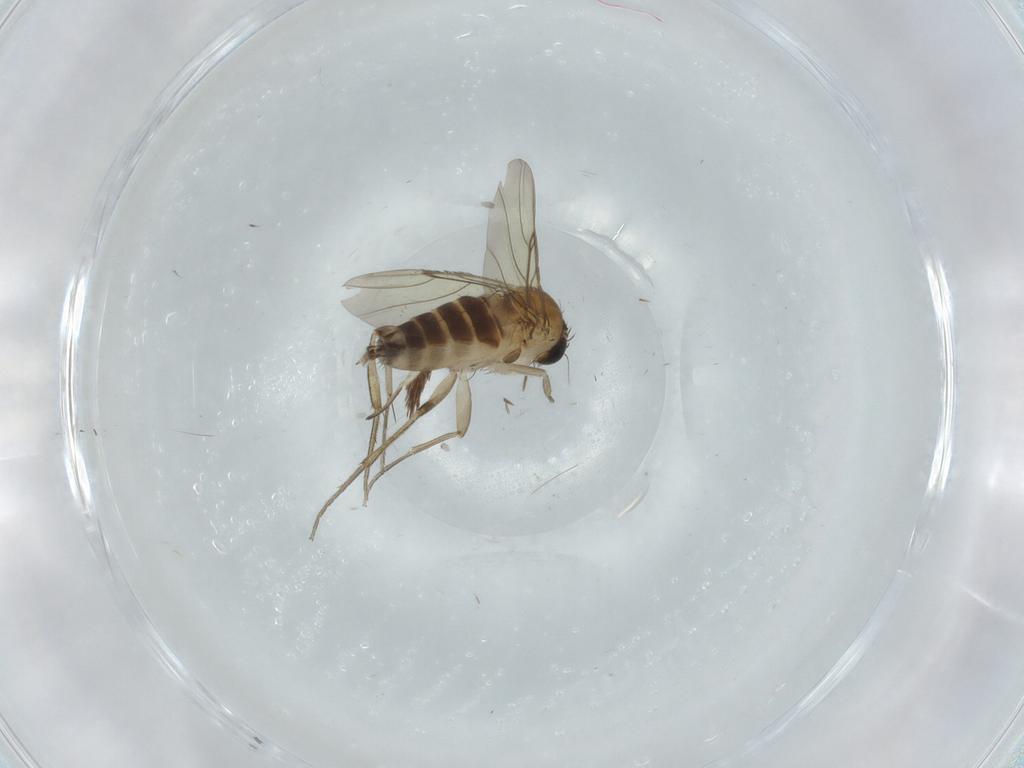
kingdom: Animalia
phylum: Arthropoda
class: Insecta
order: Diptera
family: Phoridae
